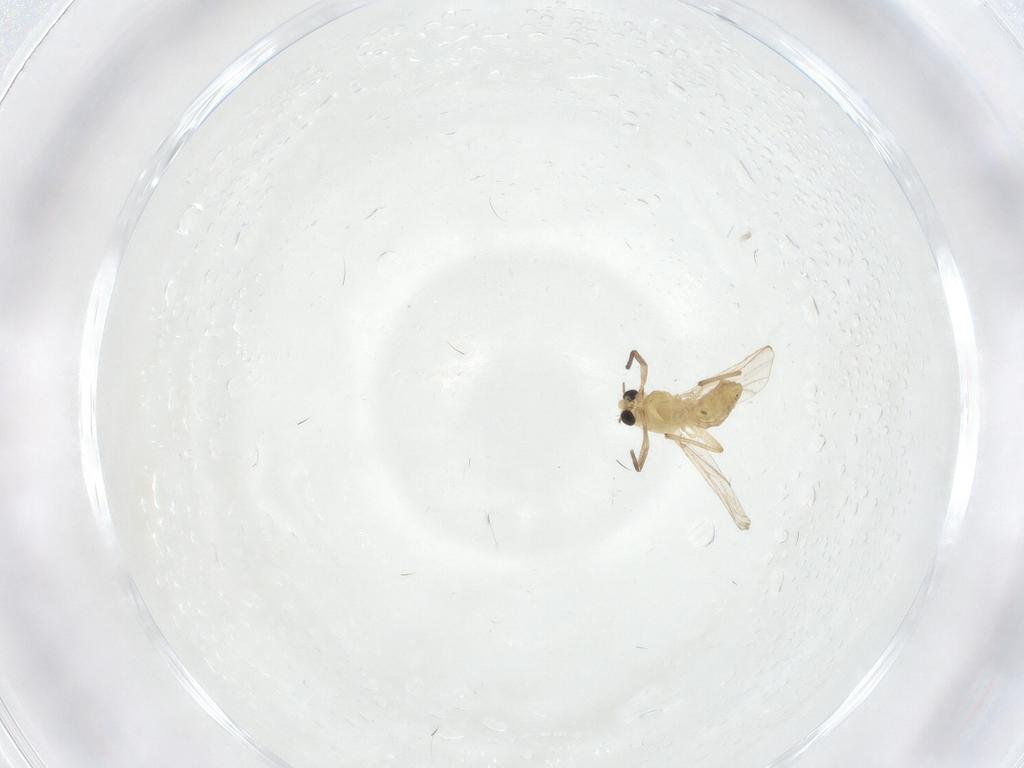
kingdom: Animalia
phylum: Arthropoda
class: Insecta
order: Diptera
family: Chironomidae
